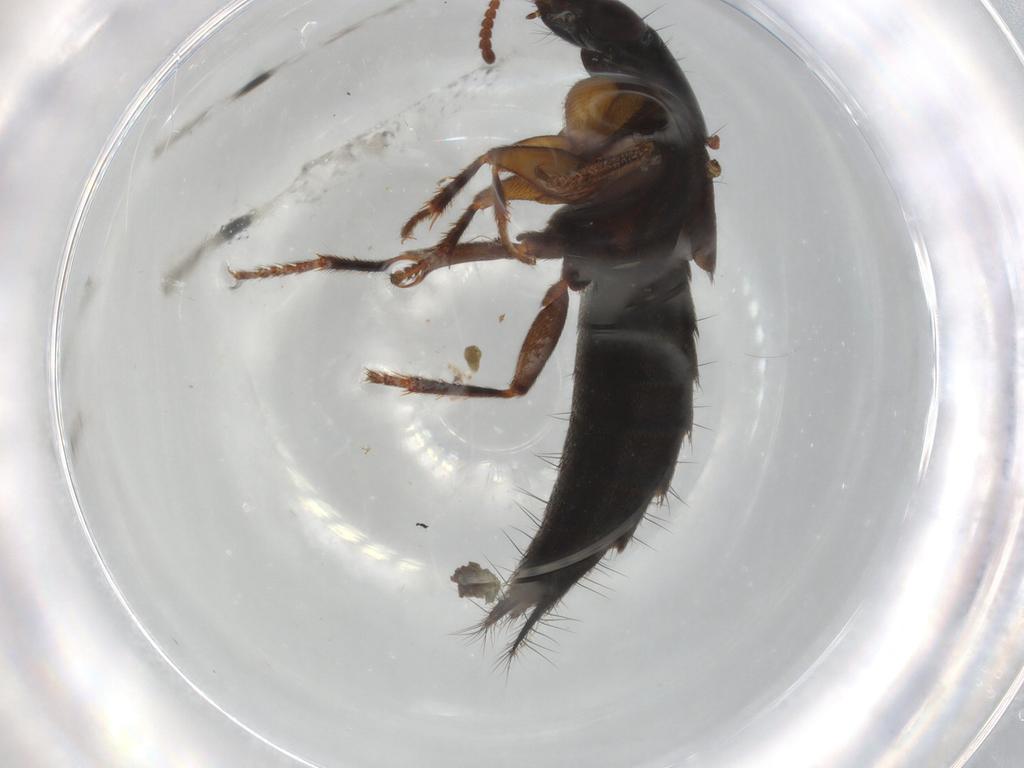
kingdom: Animalia
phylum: Arthropoda
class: Insecta
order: Coleoptera
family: Staphylinidae
